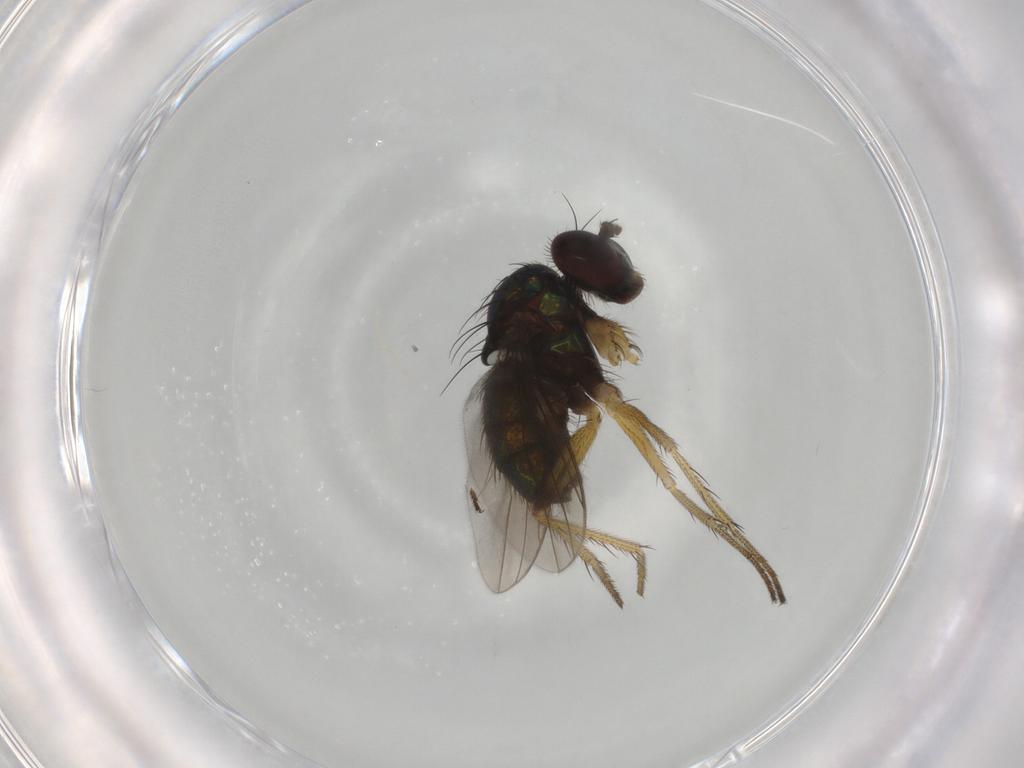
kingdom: Animalia
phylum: Arthropoda
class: Insecta
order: Diptera
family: Dolichopodidae
